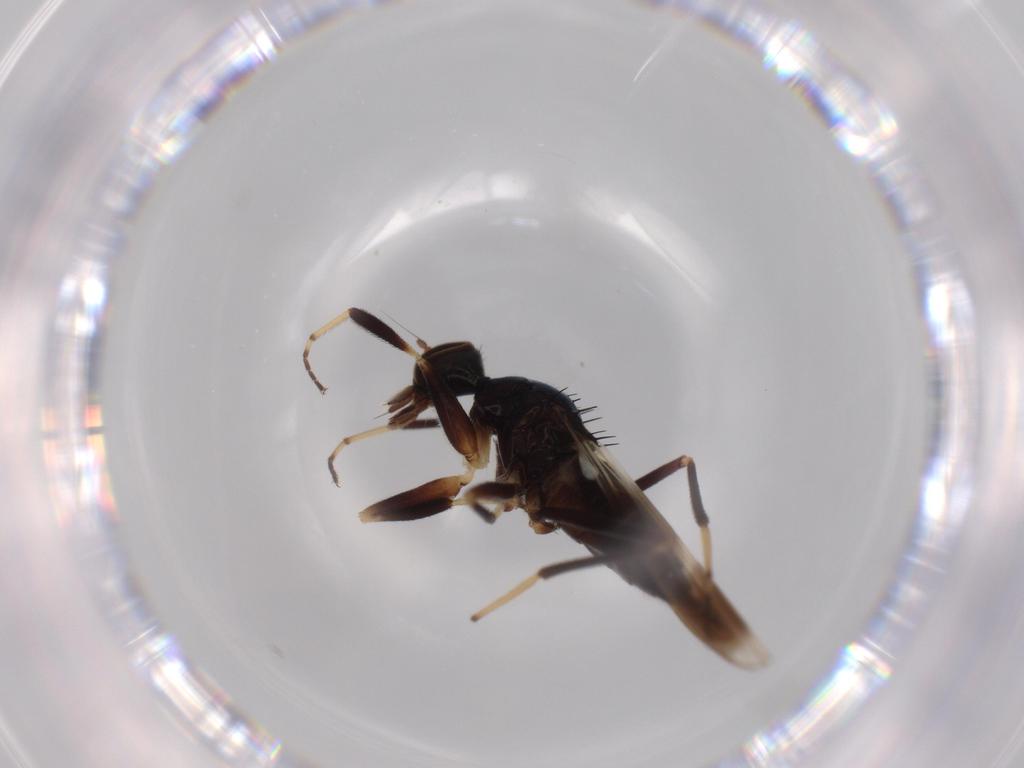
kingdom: Animalia
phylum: Arthropoda
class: Insecta
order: Diptera
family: Hybotidae
